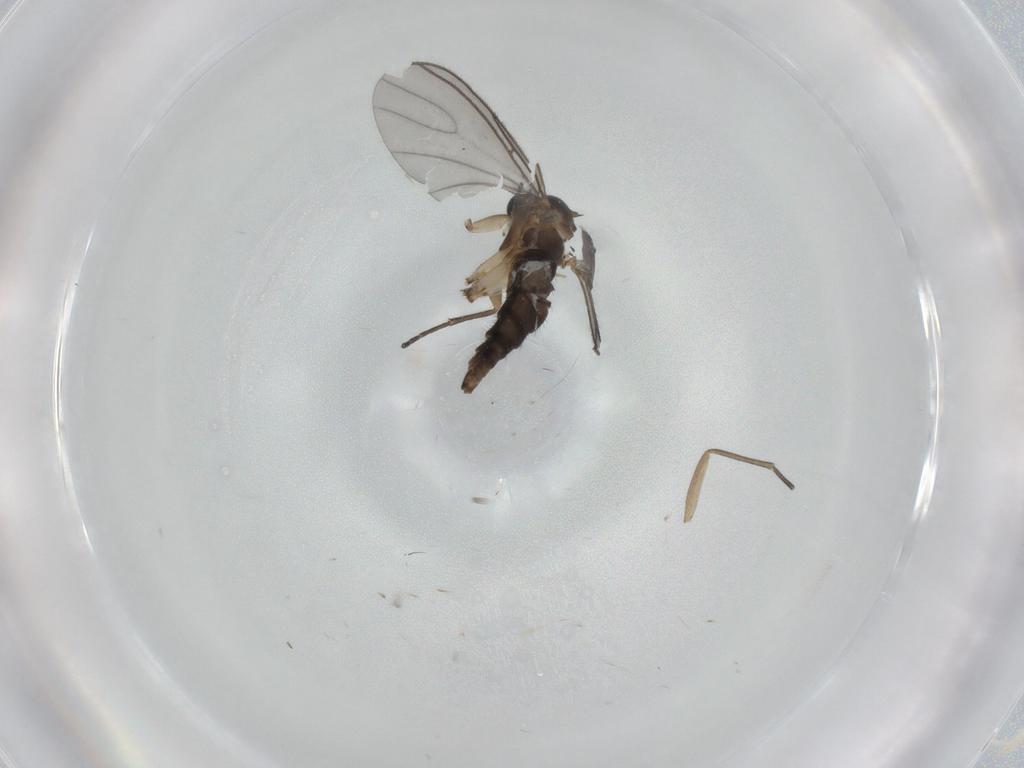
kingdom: Animalia
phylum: Arthropoda
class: Insecta
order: Diptera
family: Sciaridae
